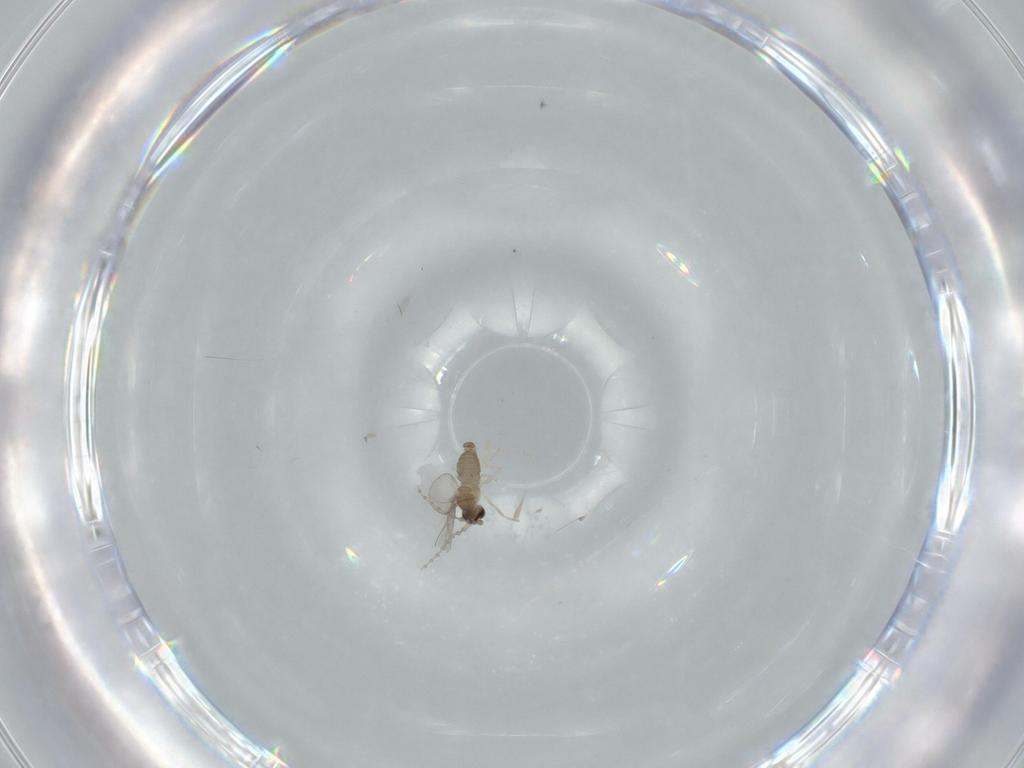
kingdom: Animalia
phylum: Arthropoda
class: Insecta
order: Diptera
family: Cecidomyiidae
